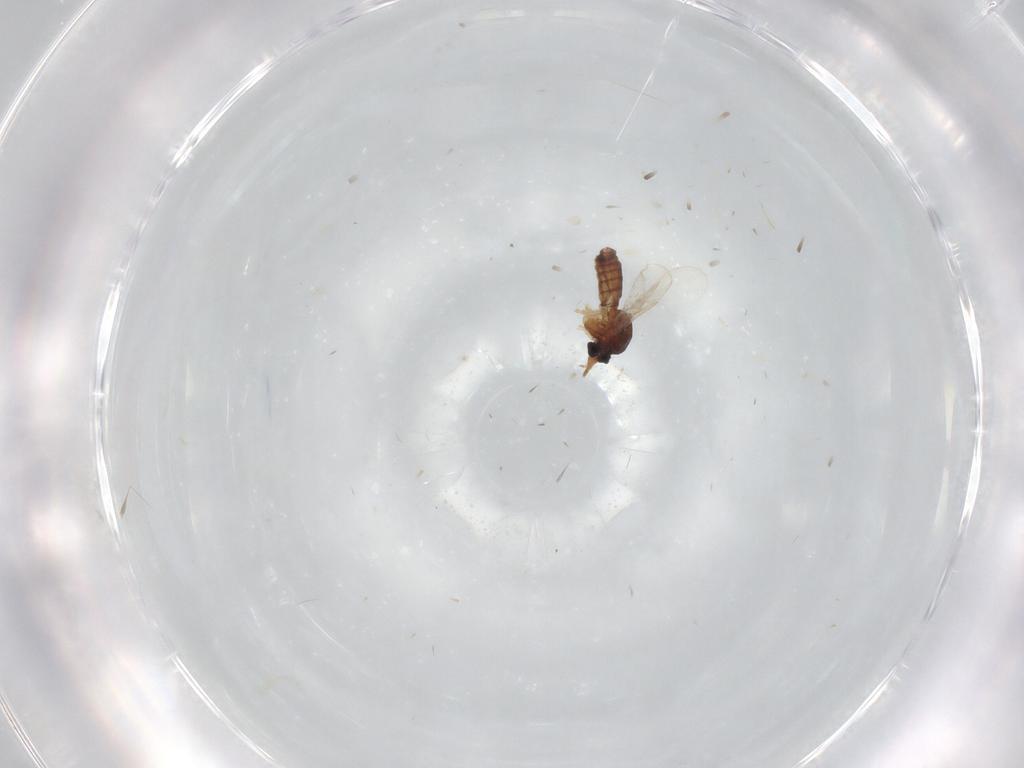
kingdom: Animalia
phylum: Arthropoda
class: Insecta
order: Diptera
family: Ceratopogonidae
